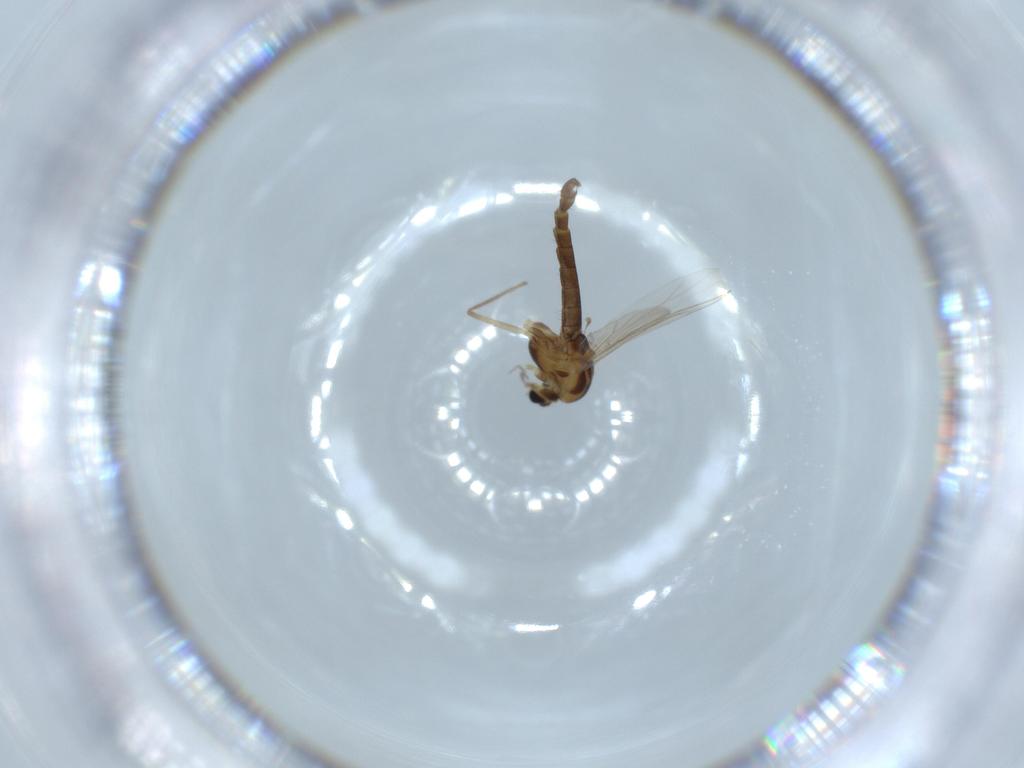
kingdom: Animalia
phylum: Arthropoda
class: Insecta
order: Diptera
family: Chironomidae
